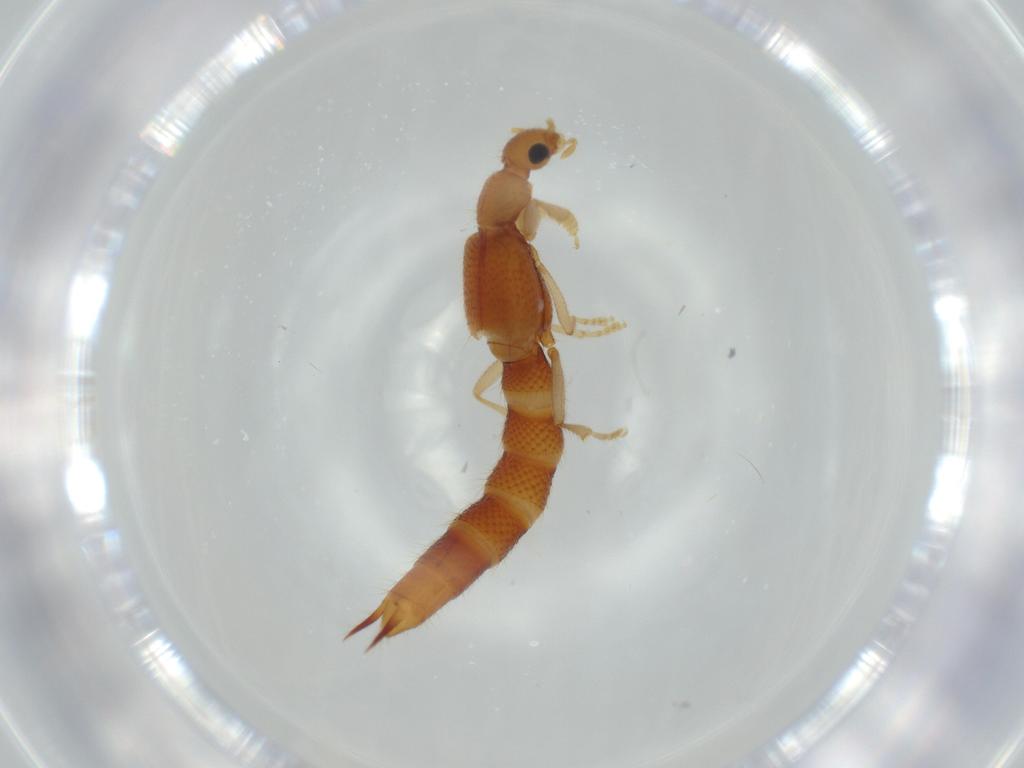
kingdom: Animalia
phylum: Arthropoda
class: Insecta
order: Coleoptera
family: Staphylinidae
